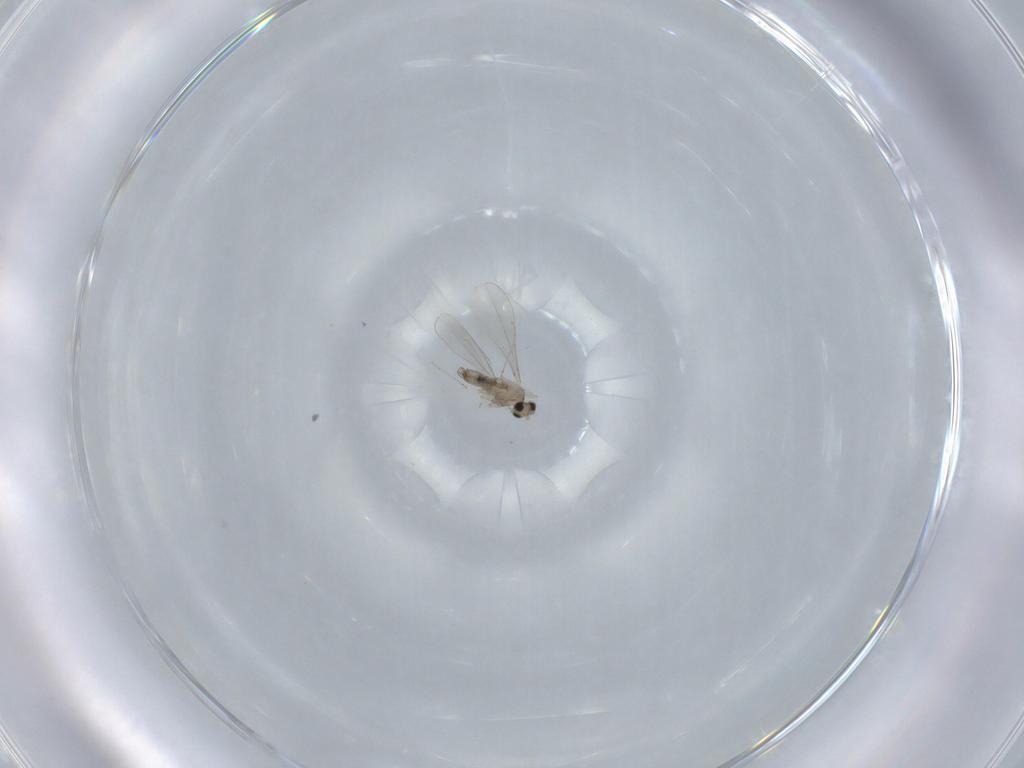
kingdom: Animalia
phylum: Arthropoda
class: Insecta
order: Diptera
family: Cecidomyiidae
